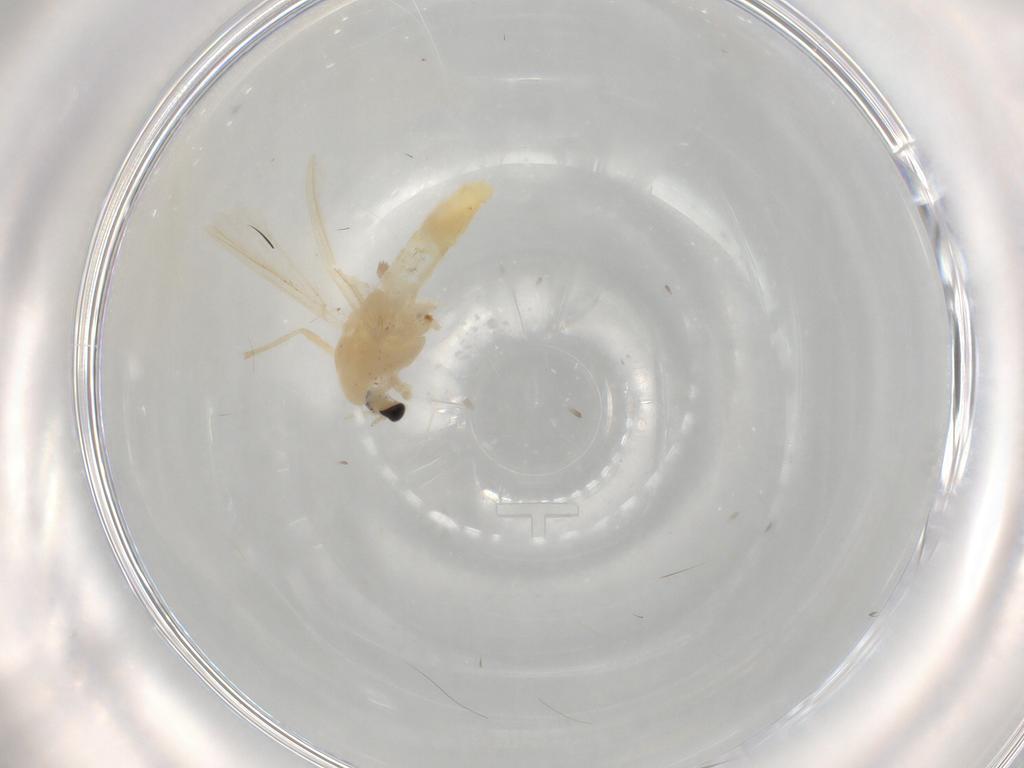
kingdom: Animalia
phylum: Arthropoda
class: Insecta
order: Diptera
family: Chironomidae
